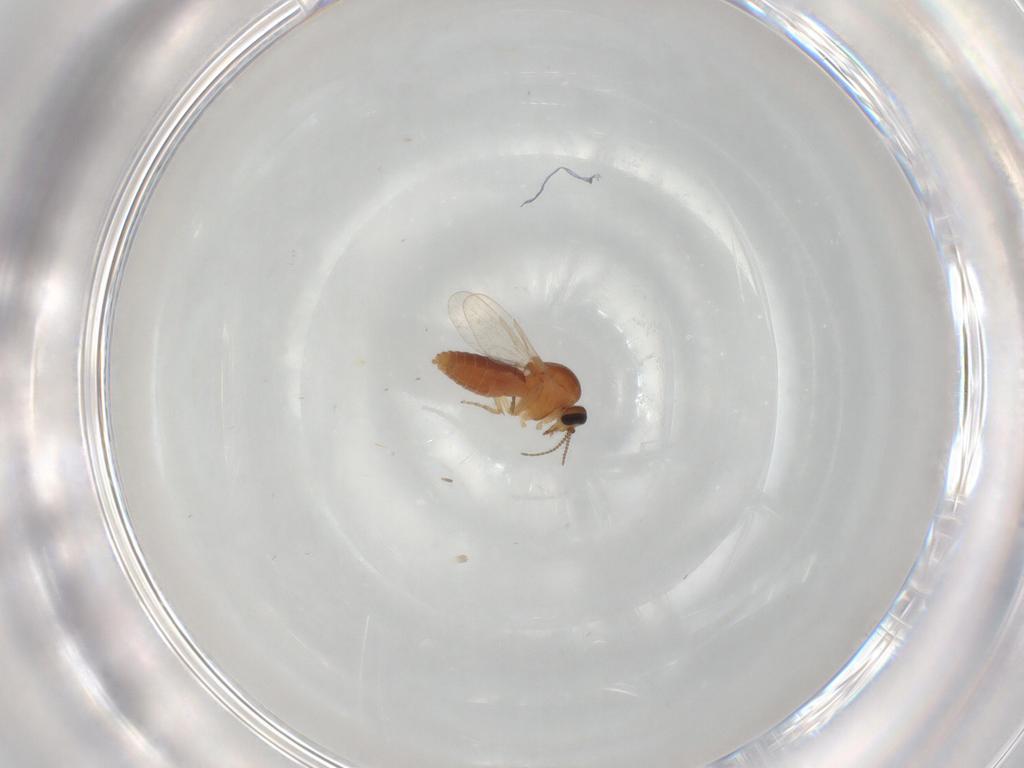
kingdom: Animalia
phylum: Arthropoda
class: Insecta
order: Diptera
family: Ceratopogonidae
